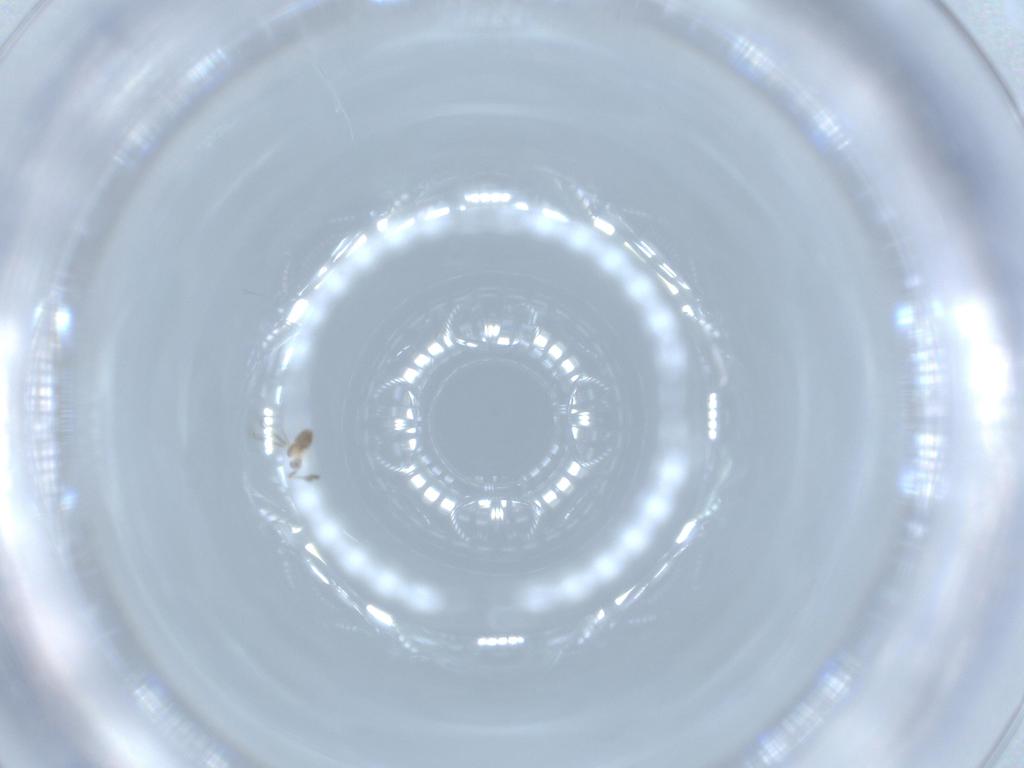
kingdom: Animalia
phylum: Arthropoda
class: Insecta
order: Hymenoptera
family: Mymaridae
